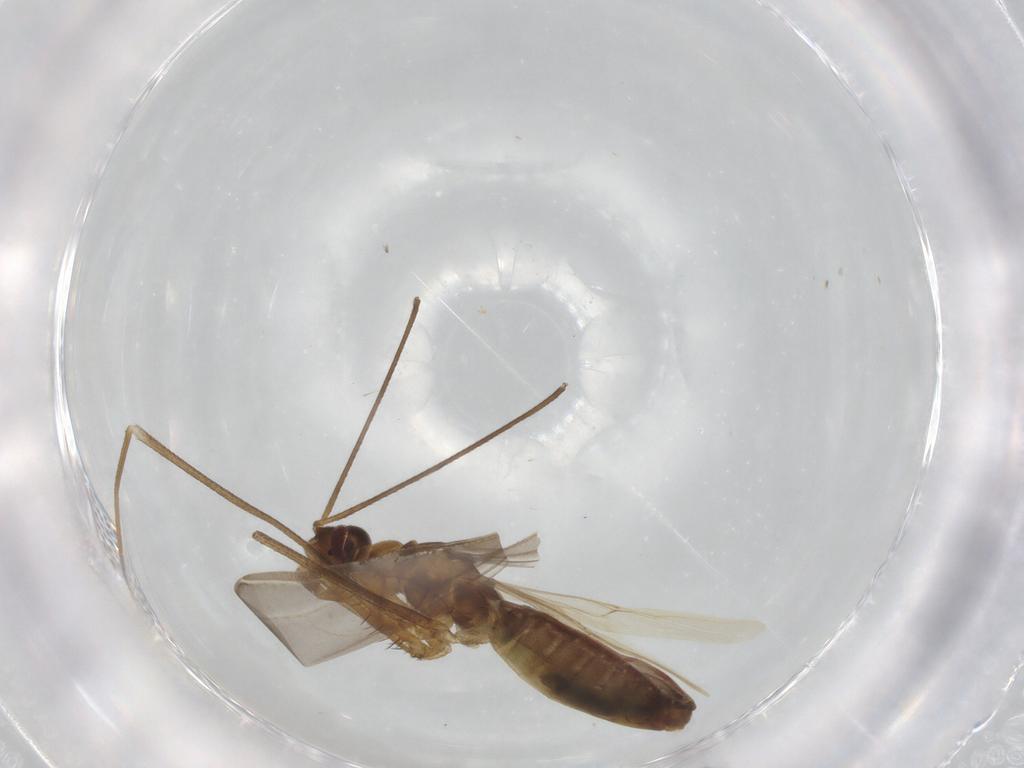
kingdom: Animalia
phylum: Arthropoda
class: Insecta
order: Hemiptera
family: Reduviidae
